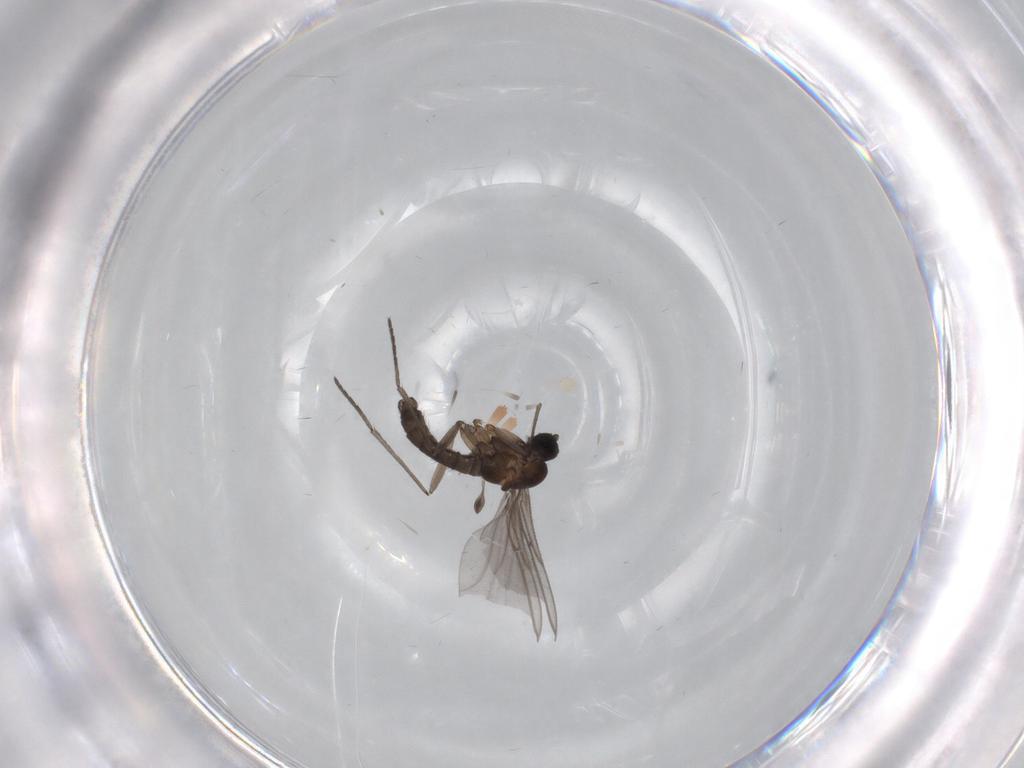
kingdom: Animalia
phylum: Arthropoda
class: Insecta
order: Diptera
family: Sciaridae
